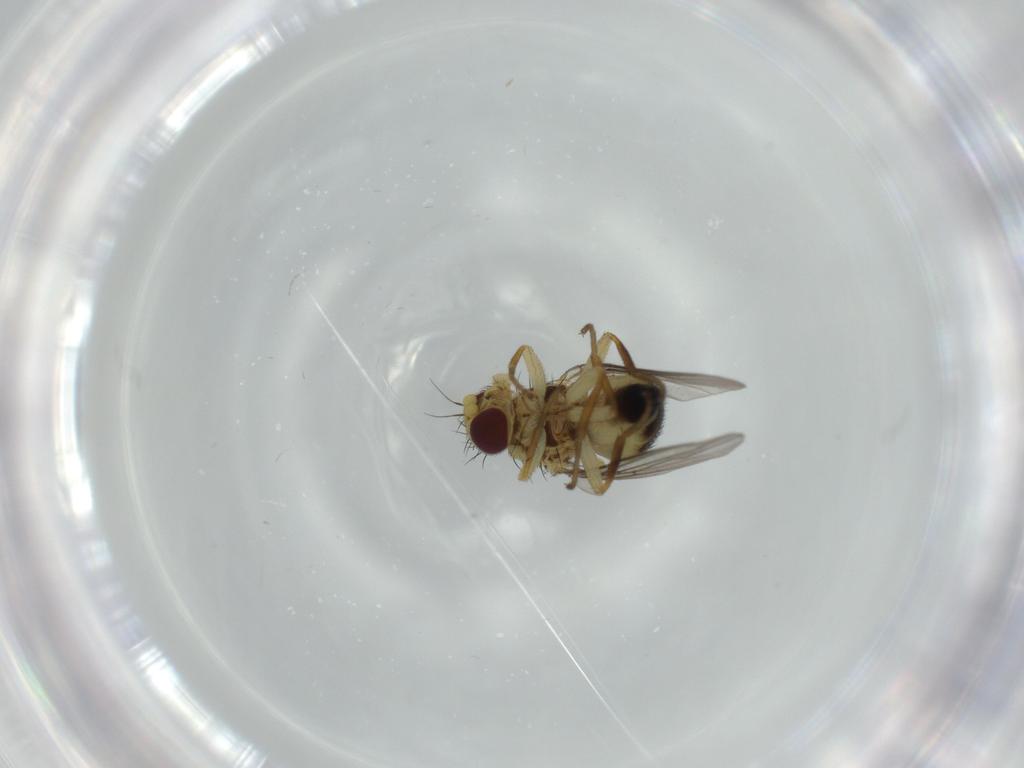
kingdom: Animalia
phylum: Arthropoda
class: Insecta
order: Diptera
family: Agromyzidae
